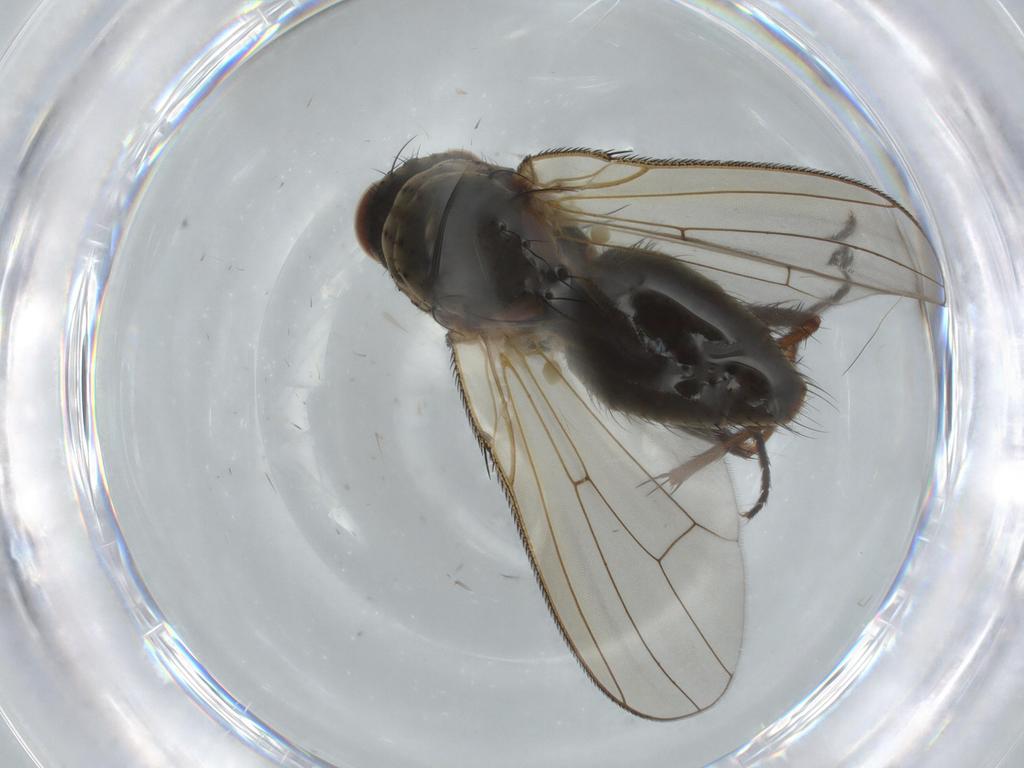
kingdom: Animalia
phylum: Arthropoda
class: Insecta
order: Diptera
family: Anthomyiidae
